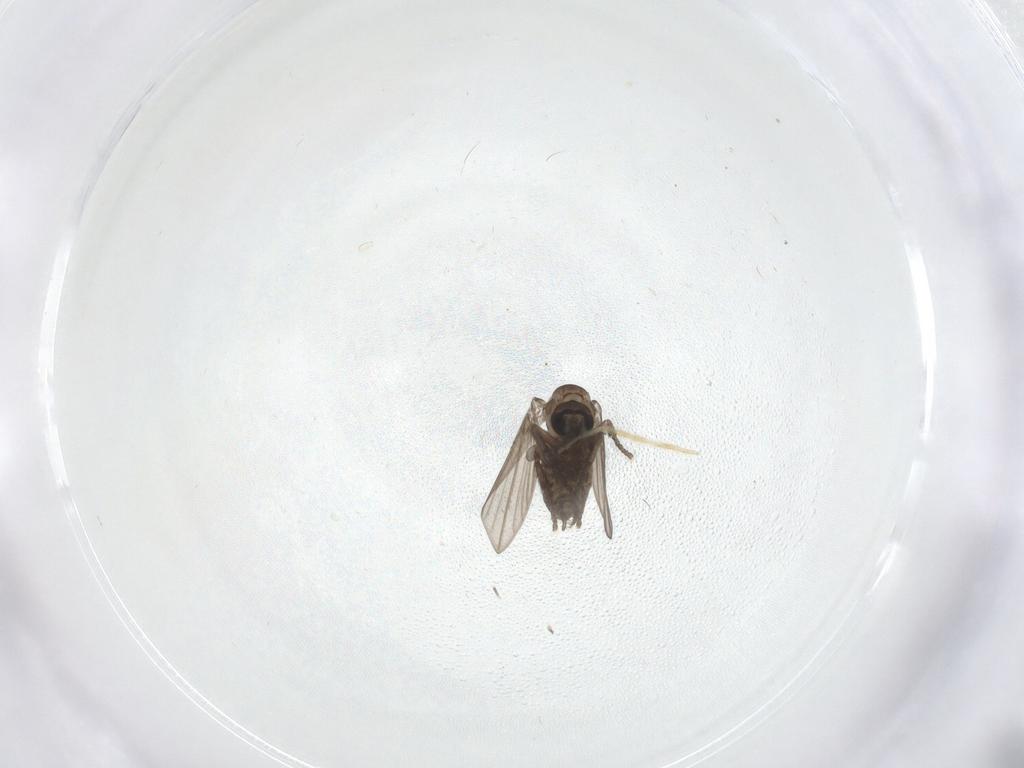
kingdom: Animalia
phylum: Arthropoda
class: Insecta
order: Diptera
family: Psychodidae
